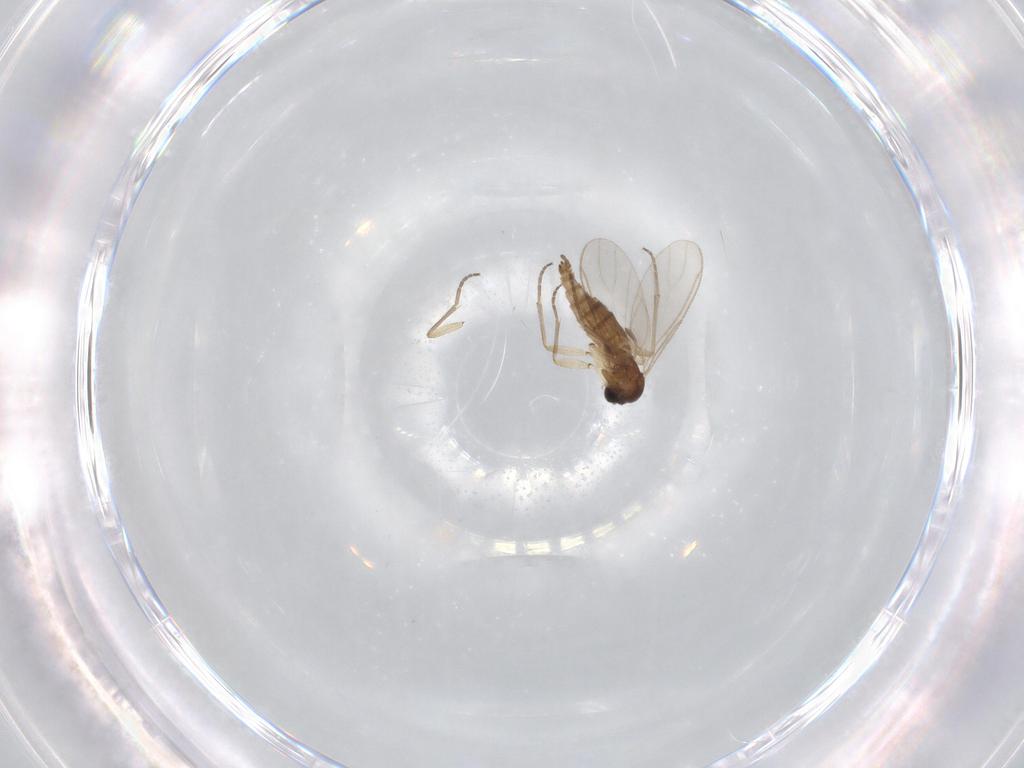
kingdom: Animalia
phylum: Arthropoda
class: Insecta
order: Diptera
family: Sciaridae
